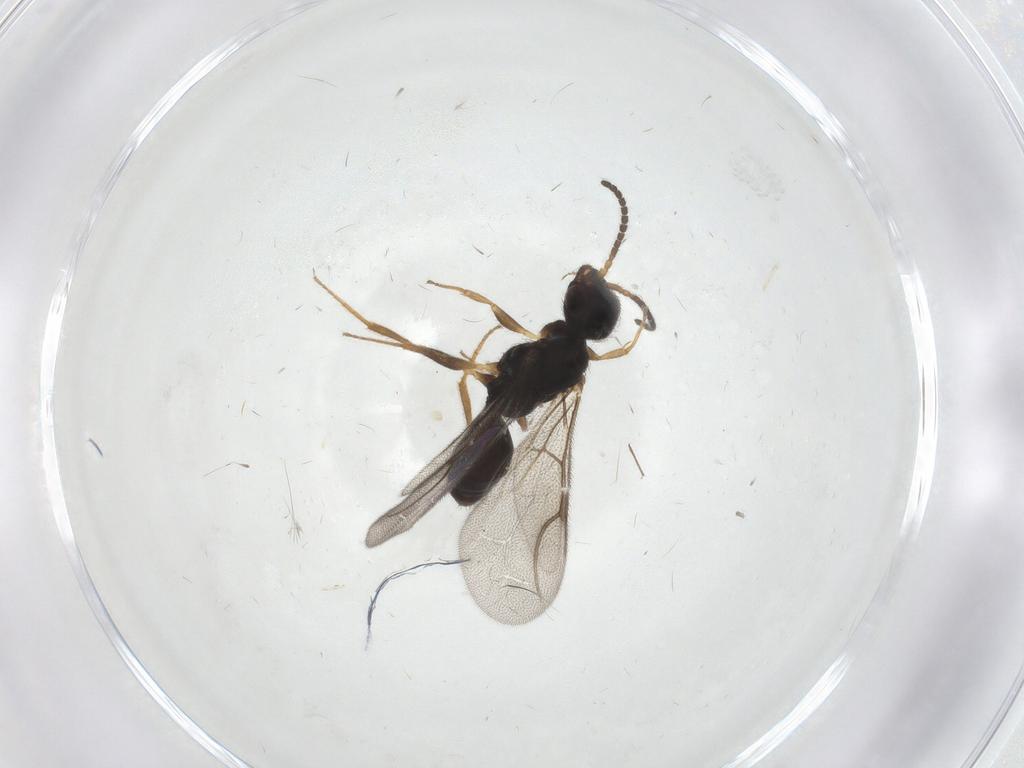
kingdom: Animalia
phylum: Arthropoda
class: Insecta
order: Hymenoptera
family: Bethylidae
